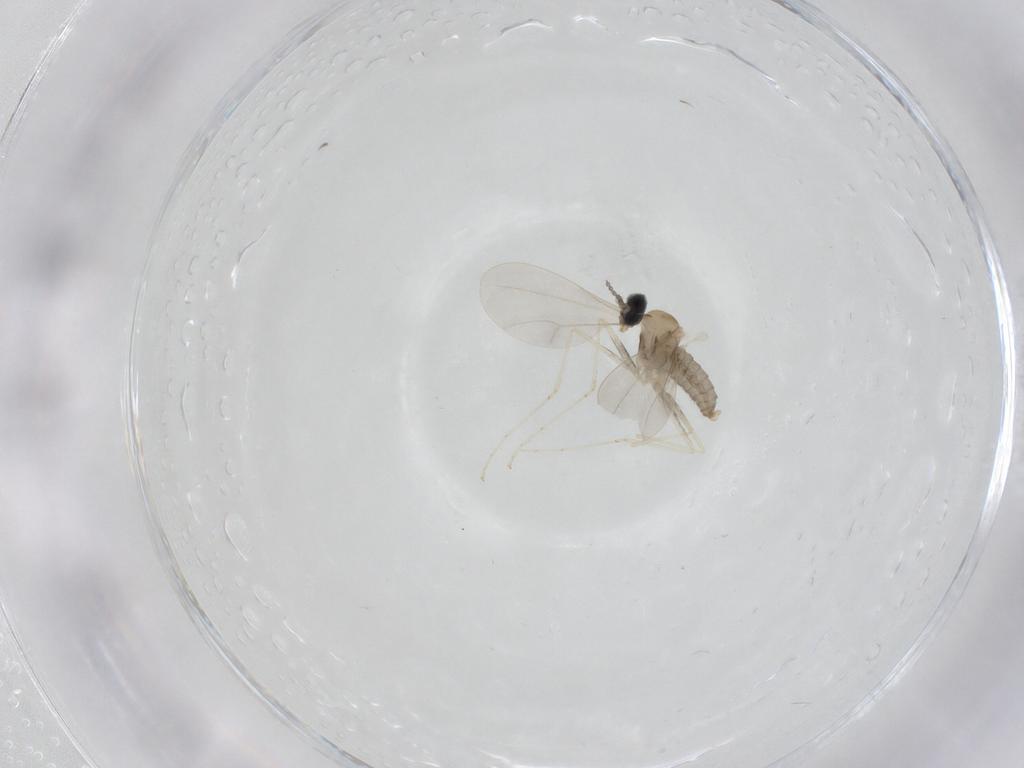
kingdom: Animalia
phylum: Arthropoda
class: Insecta
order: Diptera
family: Cecidomyiidae
